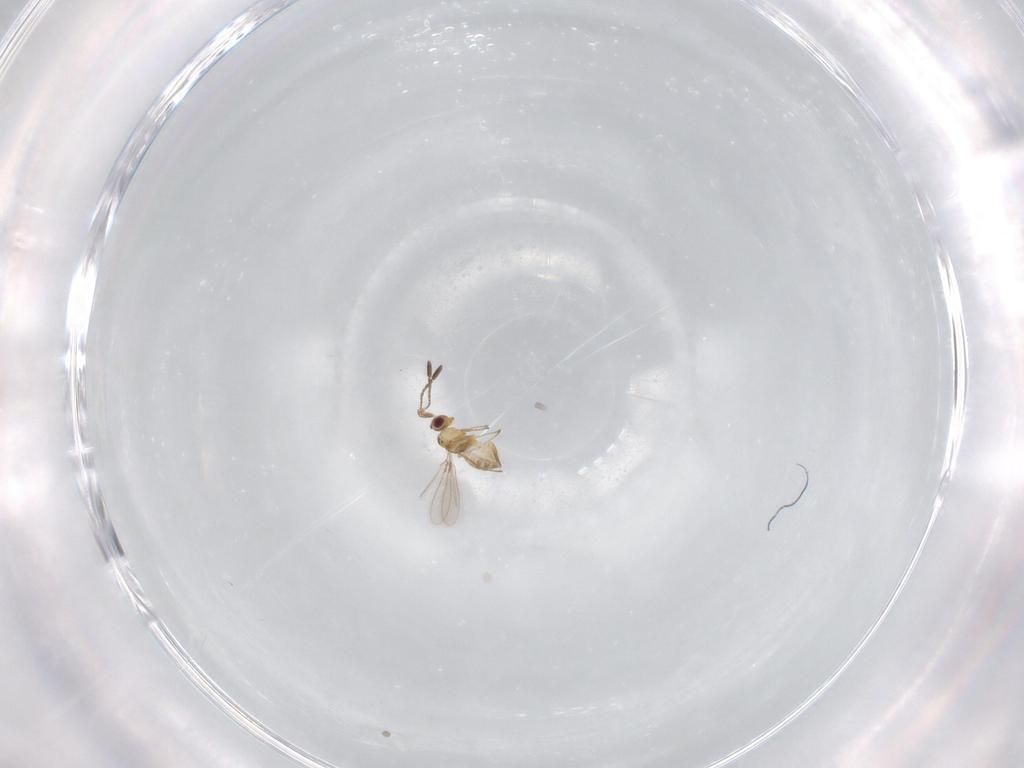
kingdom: Animalia
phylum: Arthropoda
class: Insecta
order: Hymenoptera
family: Mymaridae
